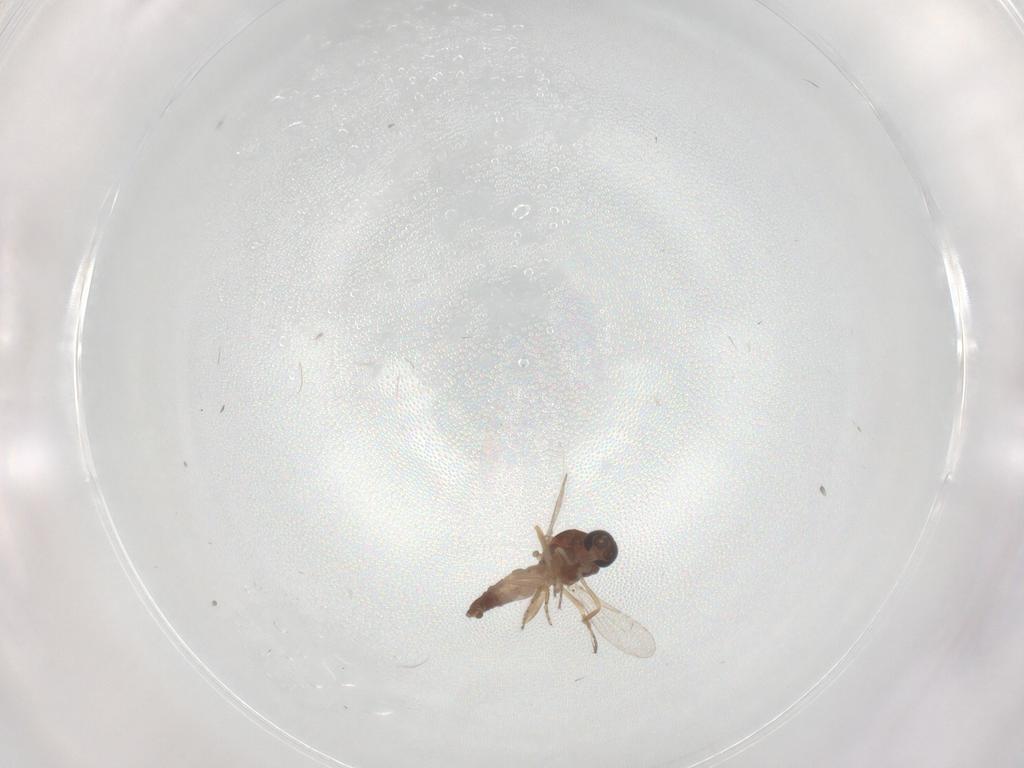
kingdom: Animalia
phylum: Arthropoda
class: Insecta
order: Diptera
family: Ceratopogonidae
